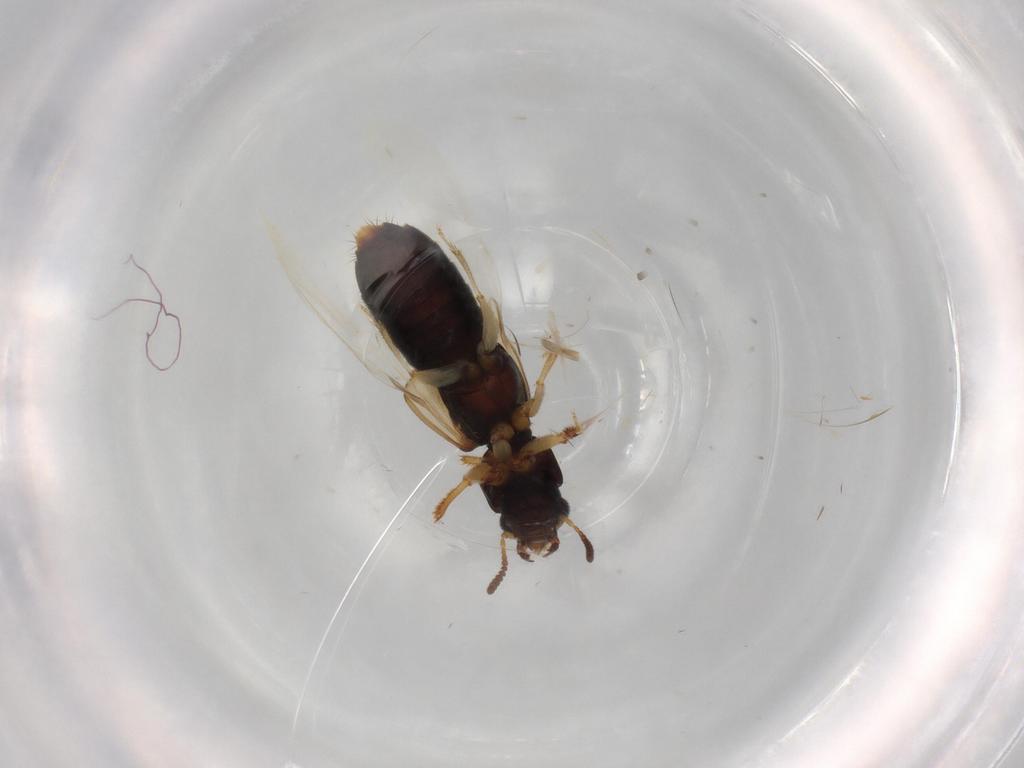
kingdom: Animalia
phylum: Arthropoda
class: Insecta
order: Coleoptera
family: Staphylinidae
